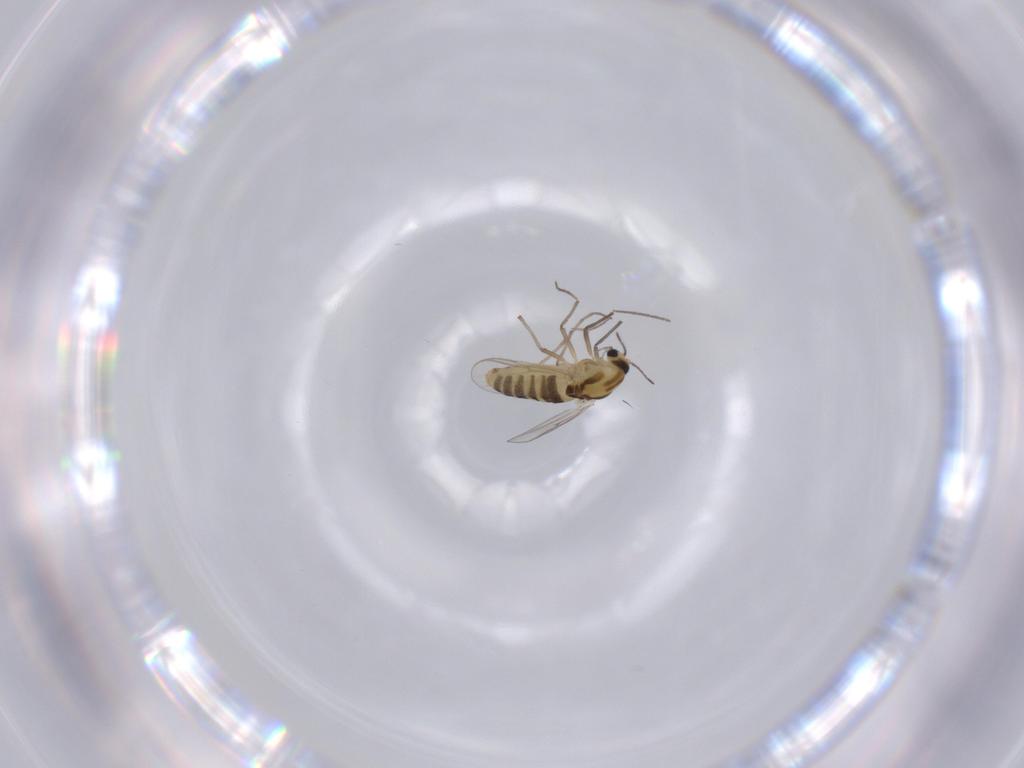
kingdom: Animalia
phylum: Arthropoda
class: Insecta
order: Diptera
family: Chironomidae
